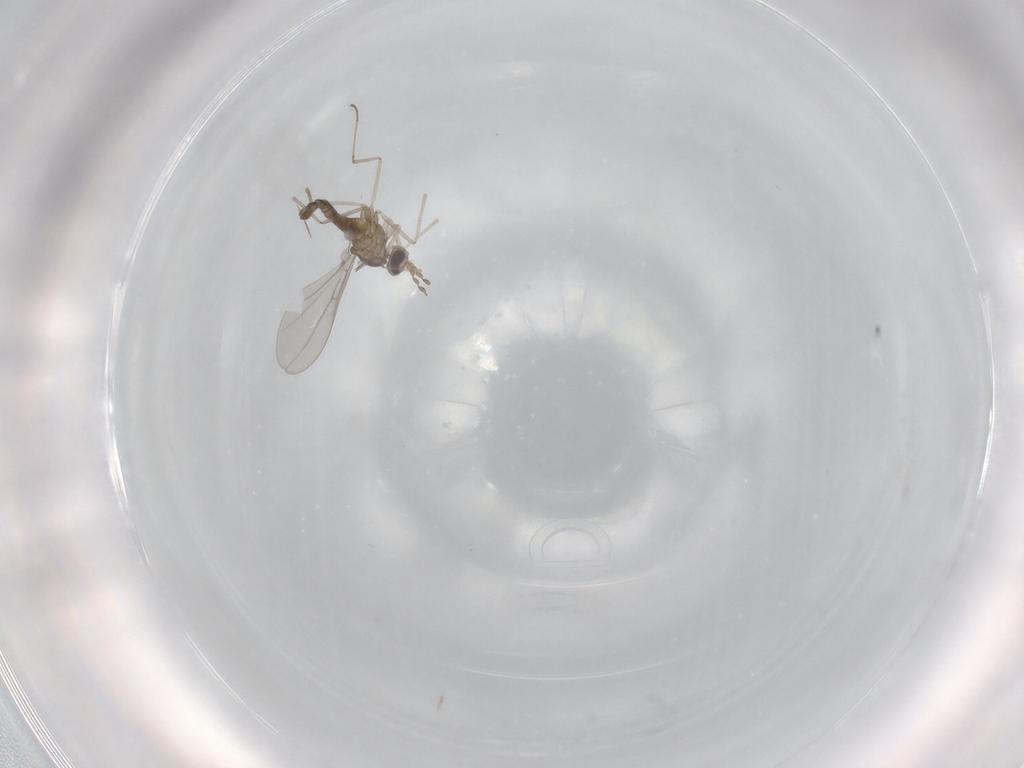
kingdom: Animalia
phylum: Arthropoda
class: Insecta
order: Diptera
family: Cecidomyiidae
